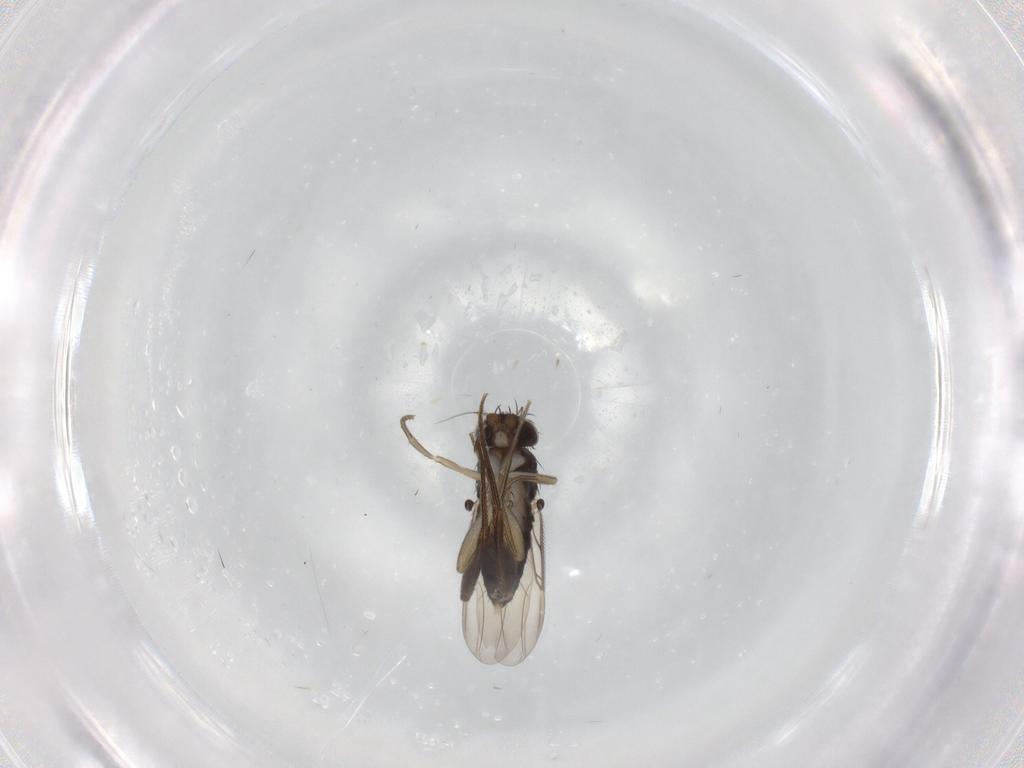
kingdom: Animalia
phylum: Arthropoda
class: Insecta
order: Diptera
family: Phoridae
